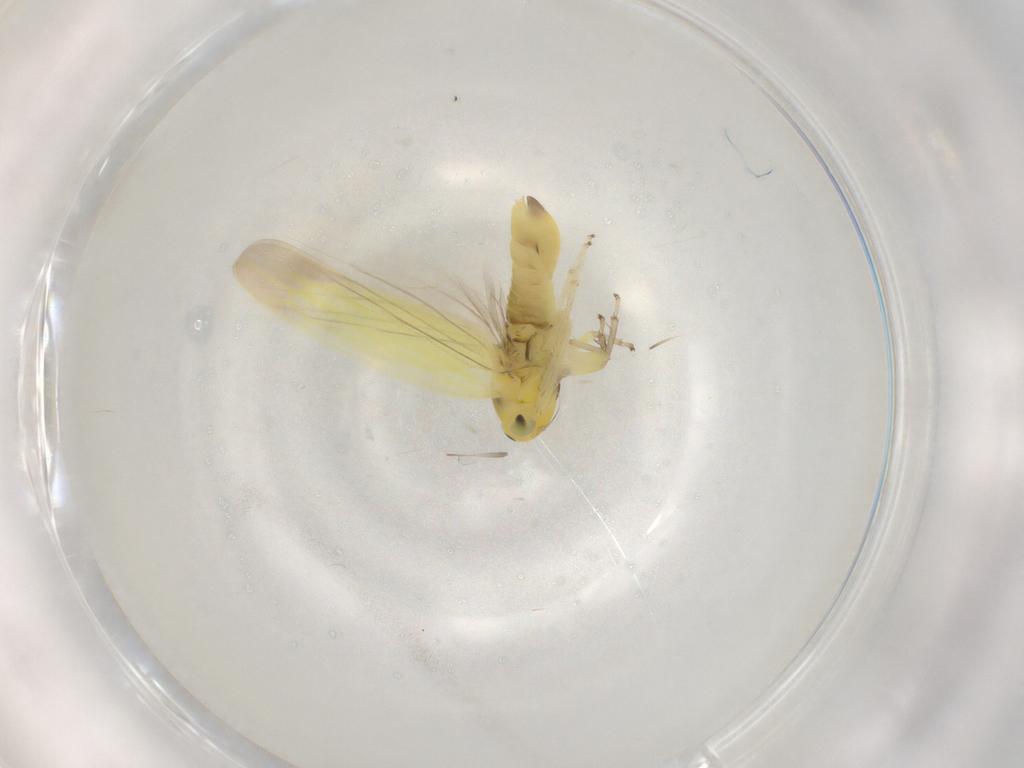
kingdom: Animalia
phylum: Arthropoda
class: Insecta
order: Hemiptera
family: Cicadellidae
